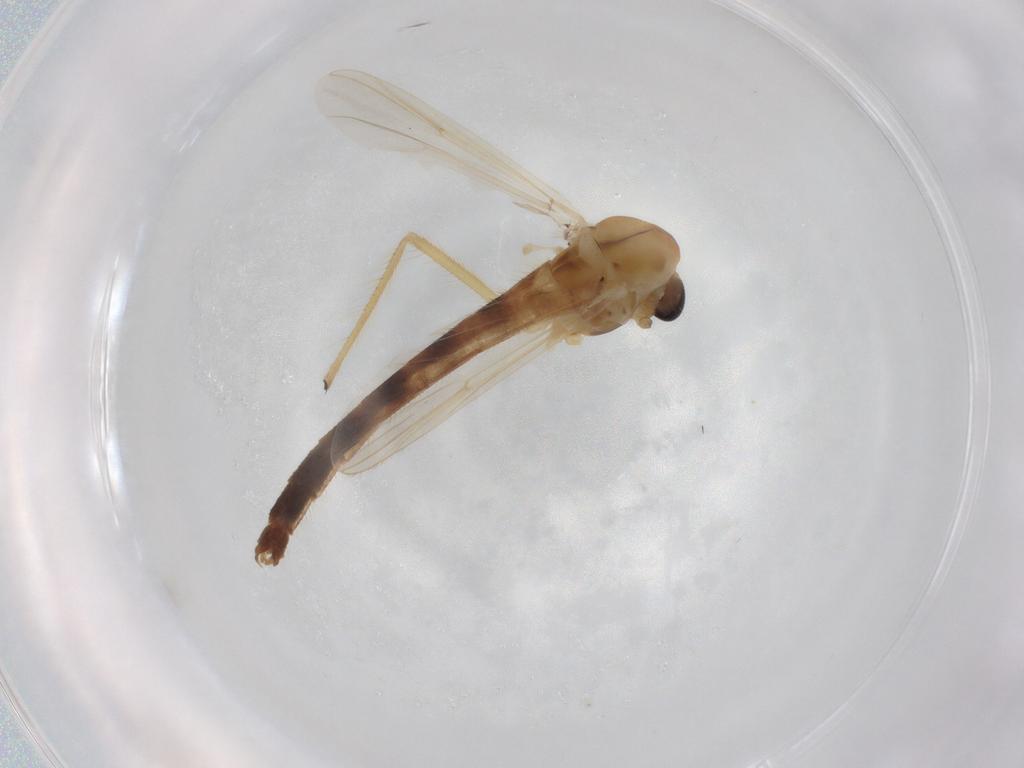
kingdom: Animalia
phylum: Arthropoda
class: Insecta
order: Diptera
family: Chironomidae
